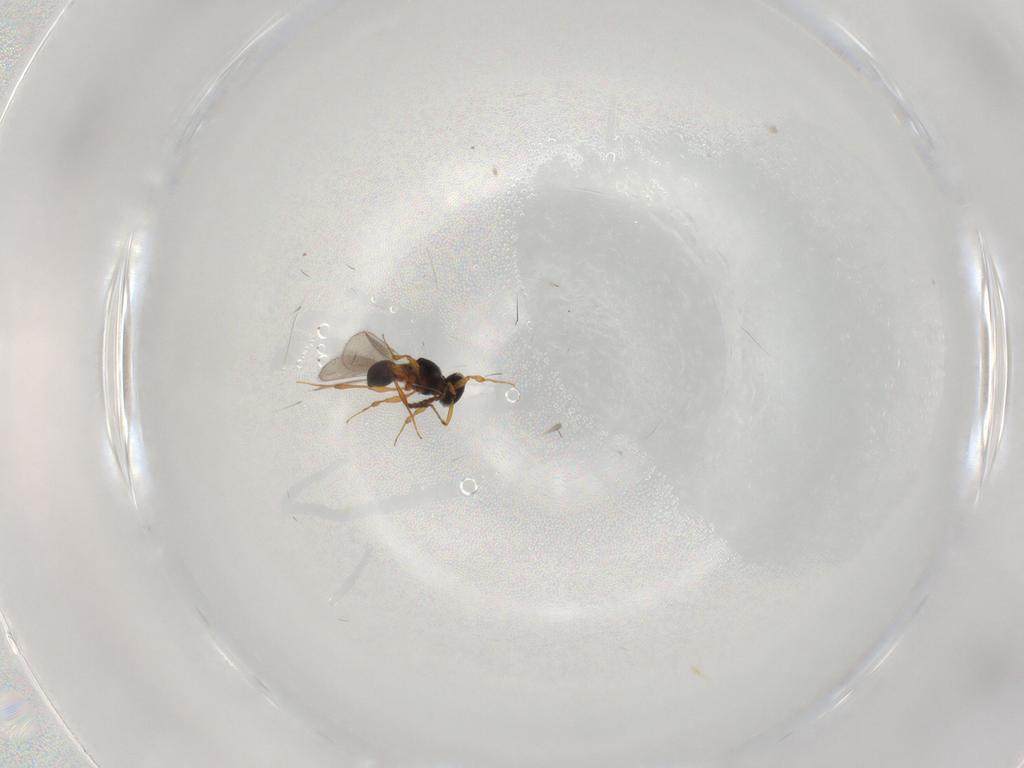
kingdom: Animalia
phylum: Arthropoda
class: Insecta
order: Hymenoptera
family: Platygastridae
